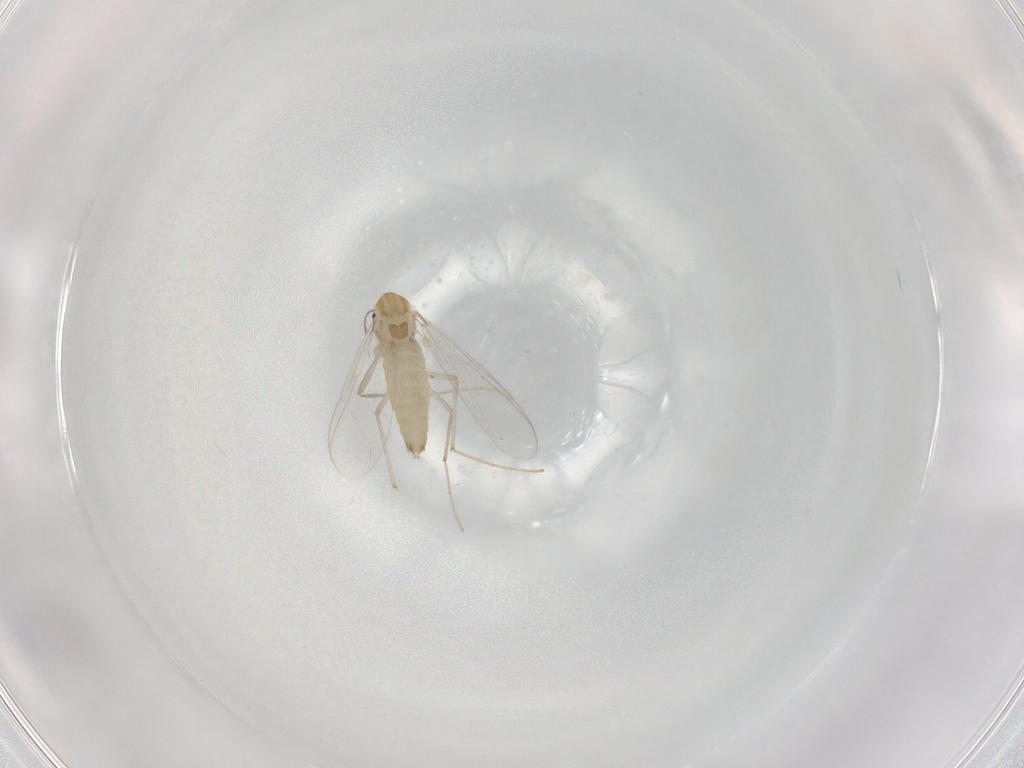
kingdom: Animalia
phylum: Arthropoda
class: Insecta
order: Diptera
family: Chironomidae
